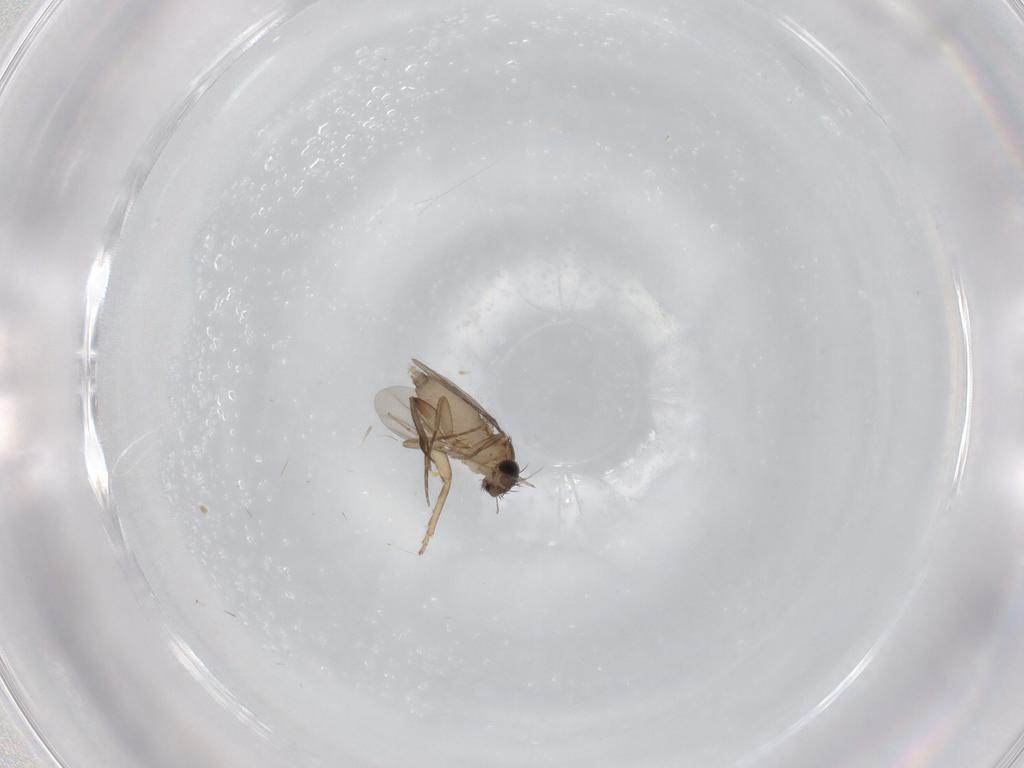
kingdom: Animalia
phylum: Arthropoda
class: Insecta
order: Diptera
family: Phoridae
